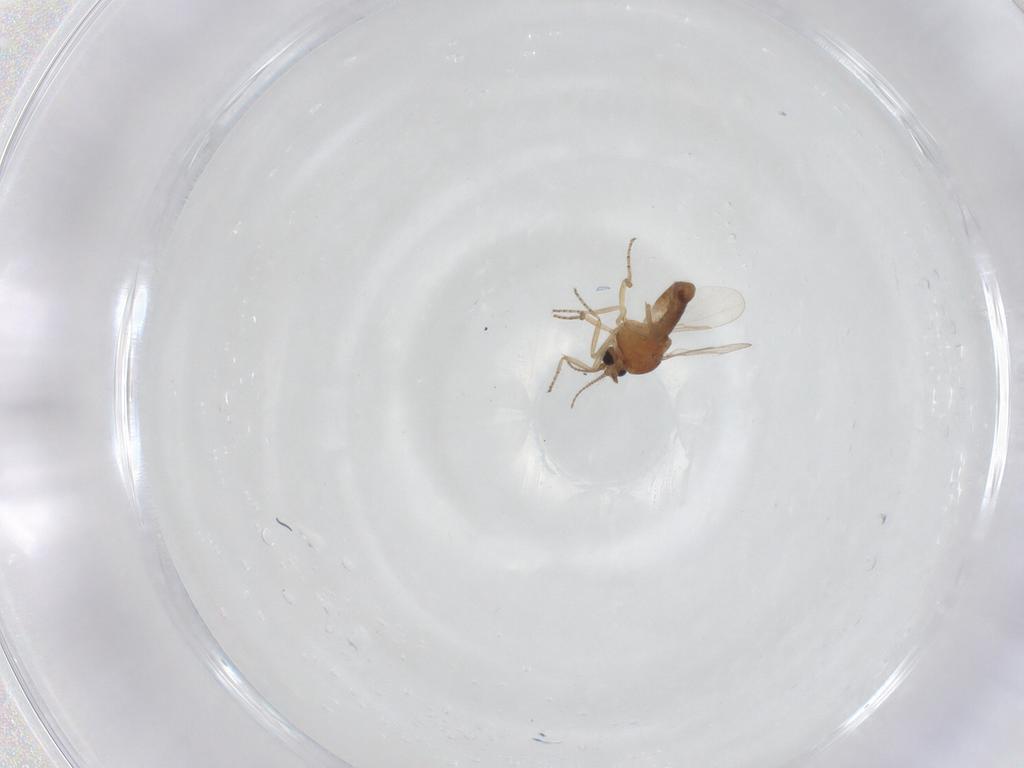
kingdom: Animalia
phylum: Arthropoda
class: Insecta
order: Diptera
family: Ceratopogonidae
